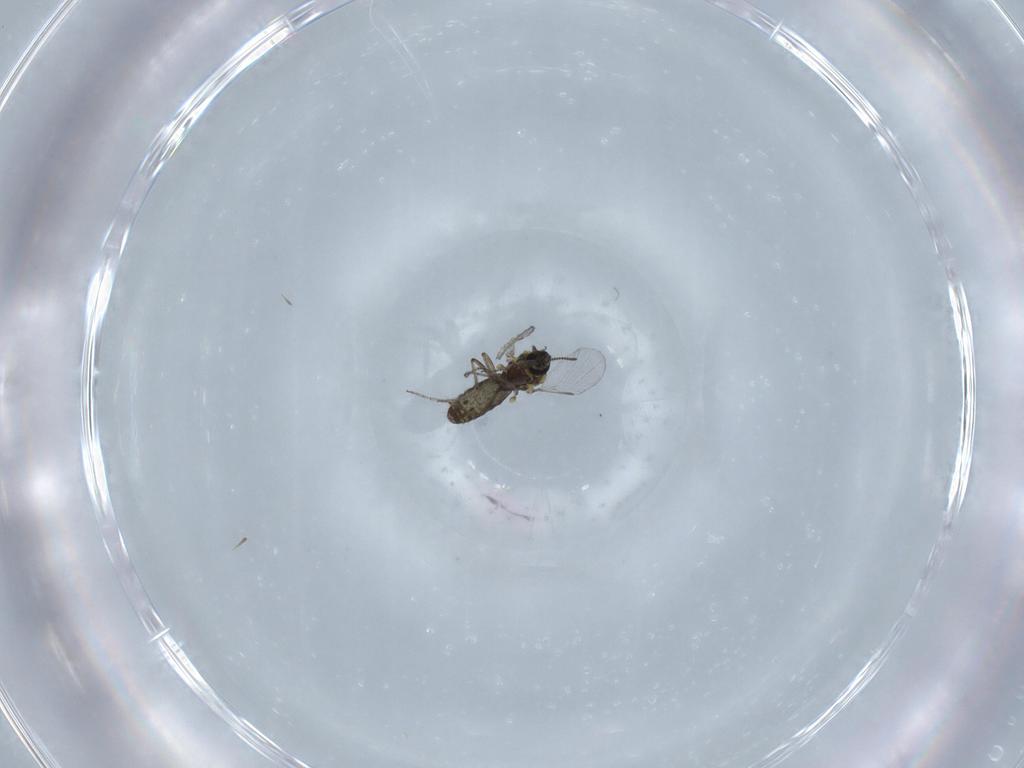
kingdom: Animalia
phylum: Arthropoda
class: Insecta
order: Diptera
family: Ceratopogonidae
